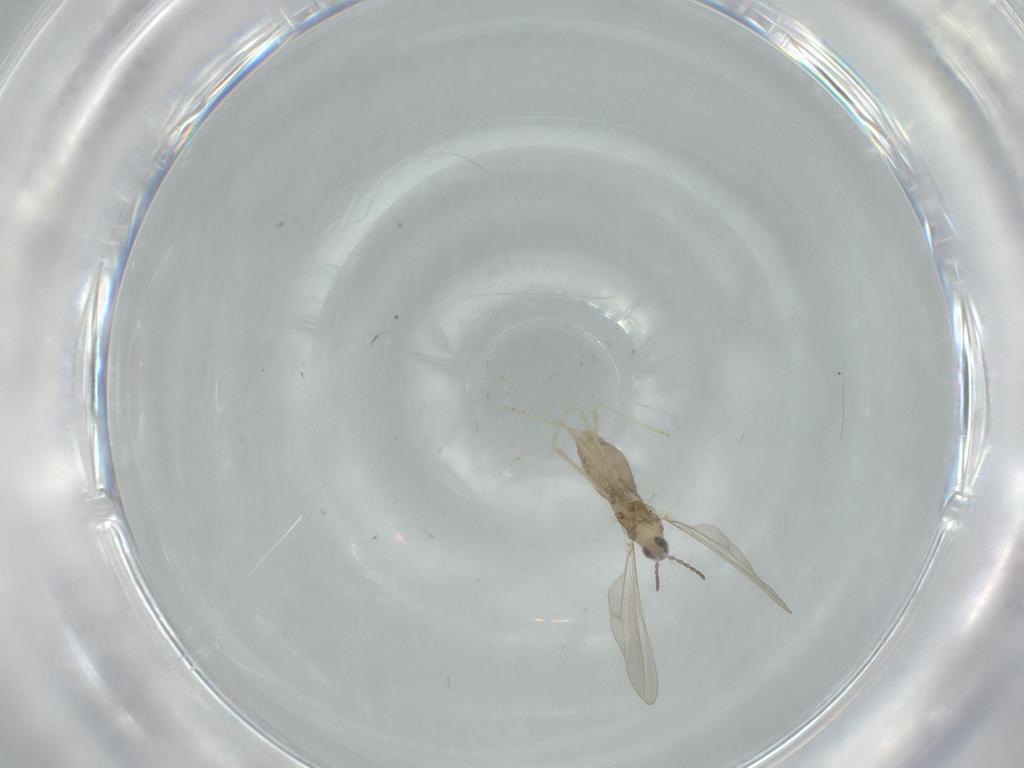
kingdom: Animalia
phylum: Arthropoda
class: Insecta
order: Diptera
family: Cecidomyiidae
